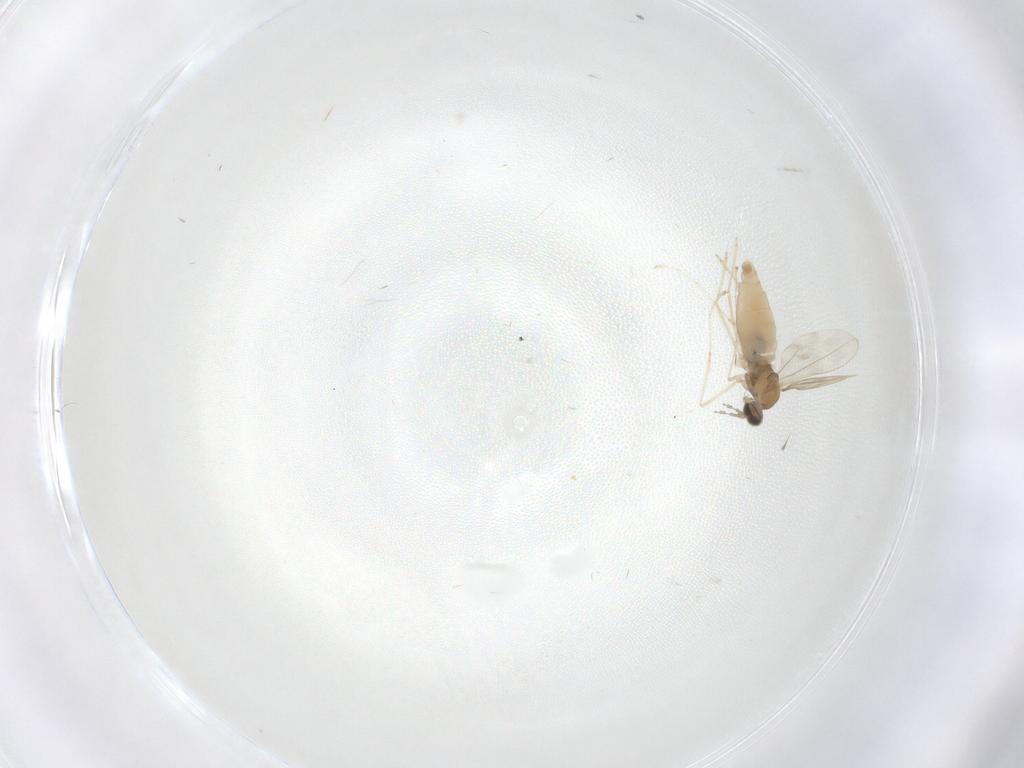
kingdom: Animalia
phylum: Arthropoda
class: Insecta
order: Diptera
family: Cecidomyiidae
